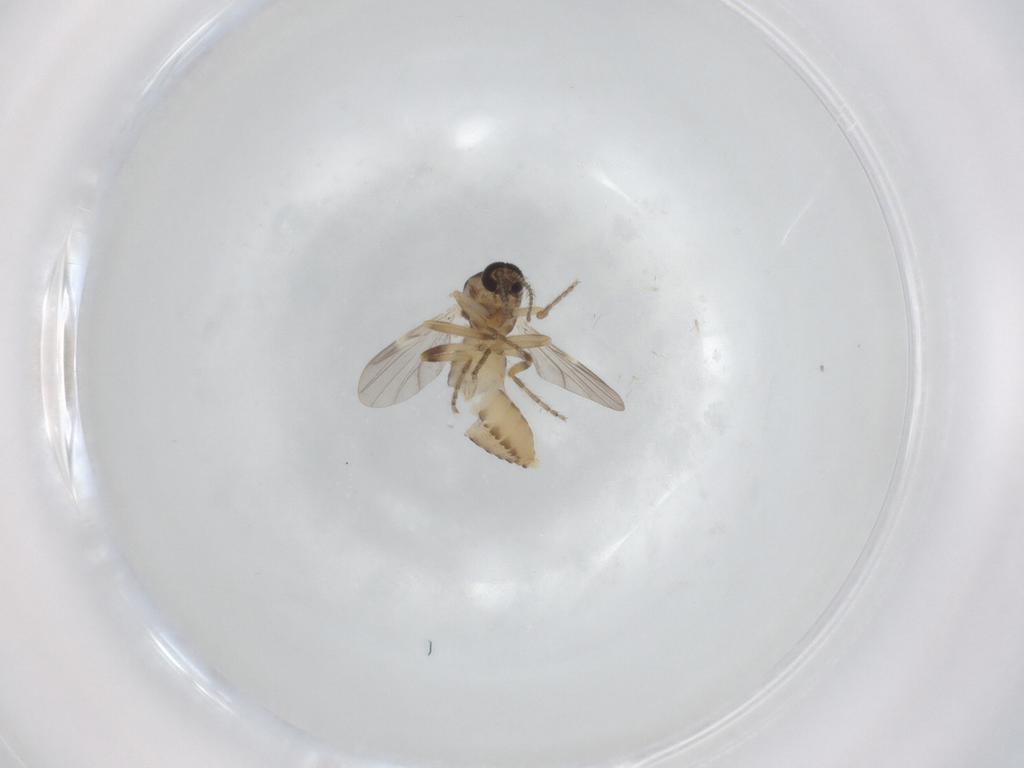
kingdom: Animalia
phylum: Arthropoda
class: Insecta
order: Diptera
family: Ceratopogonidae
